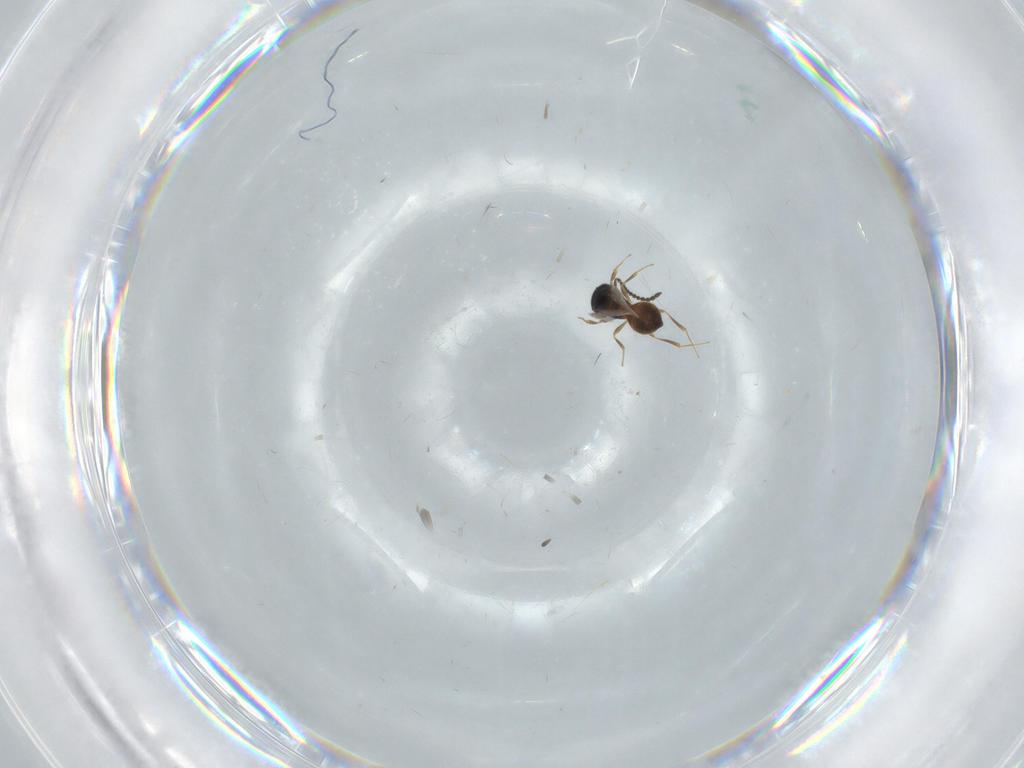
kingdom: Animalia
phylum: Arthropoda
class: Insecta
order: Hymenoptera
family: Scelionidae
